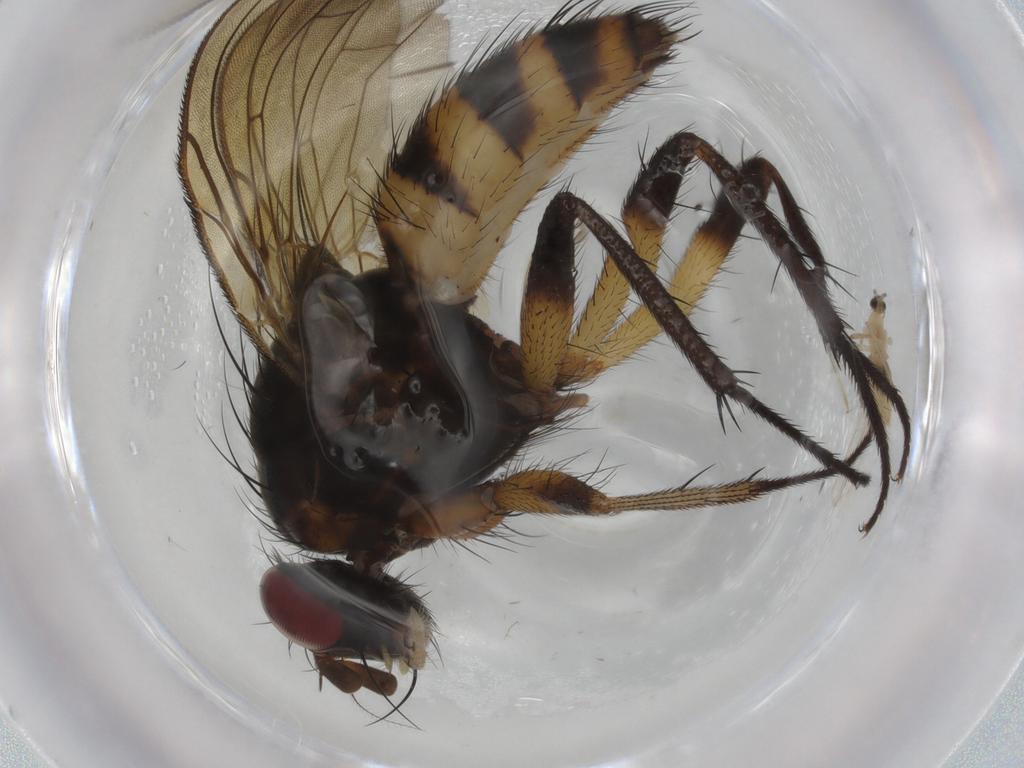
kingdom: Animalia
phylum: Arthropoda
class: Insecta
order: Diptera
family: Anthomyiidae
